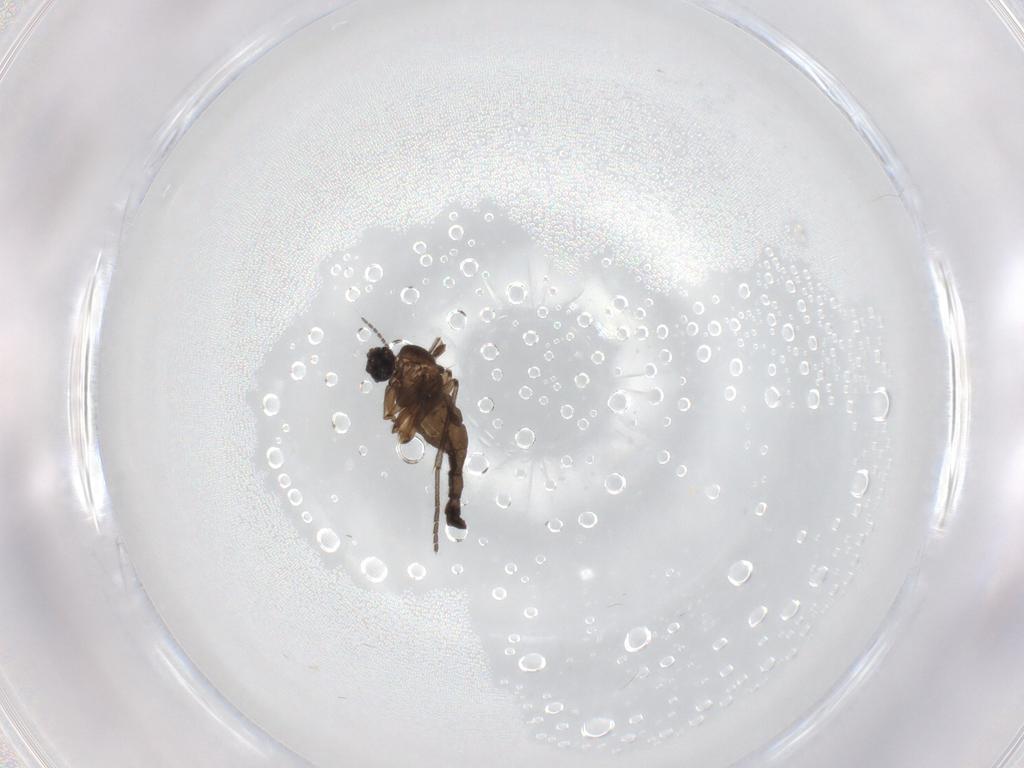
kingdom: Animalia
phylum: Arthropoda
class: Insecta
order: Diptera
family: Sciaridae
